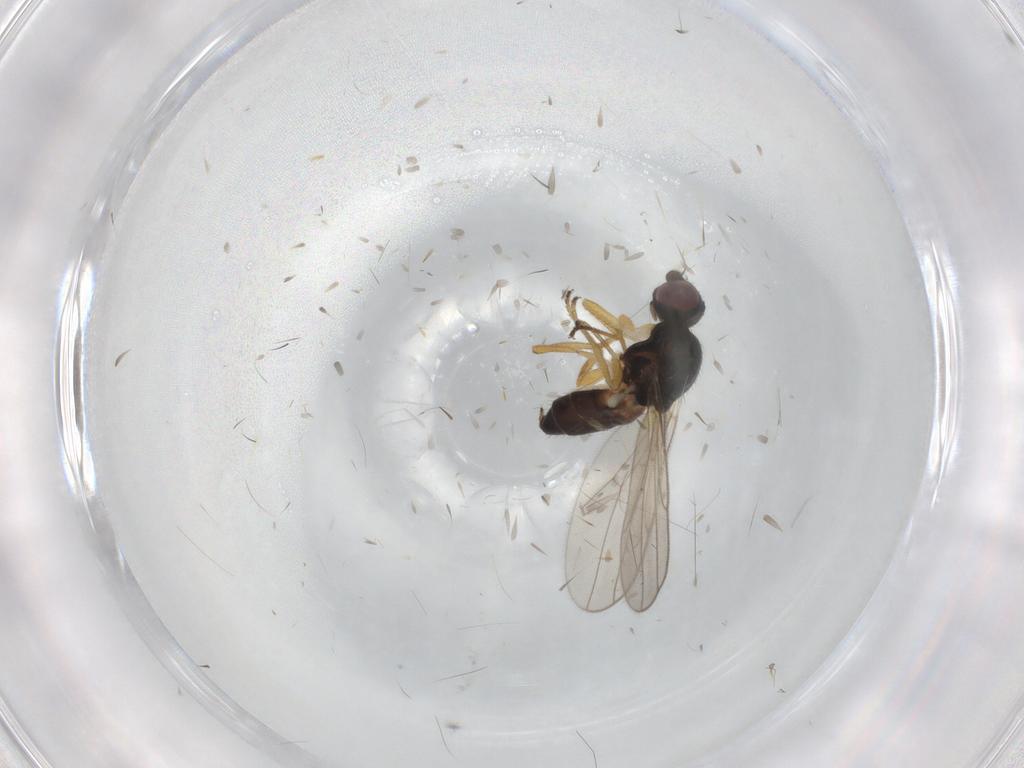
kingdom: Animalia
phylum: Arthropoda
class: Insecta
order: Diptera
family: Chloropidae
